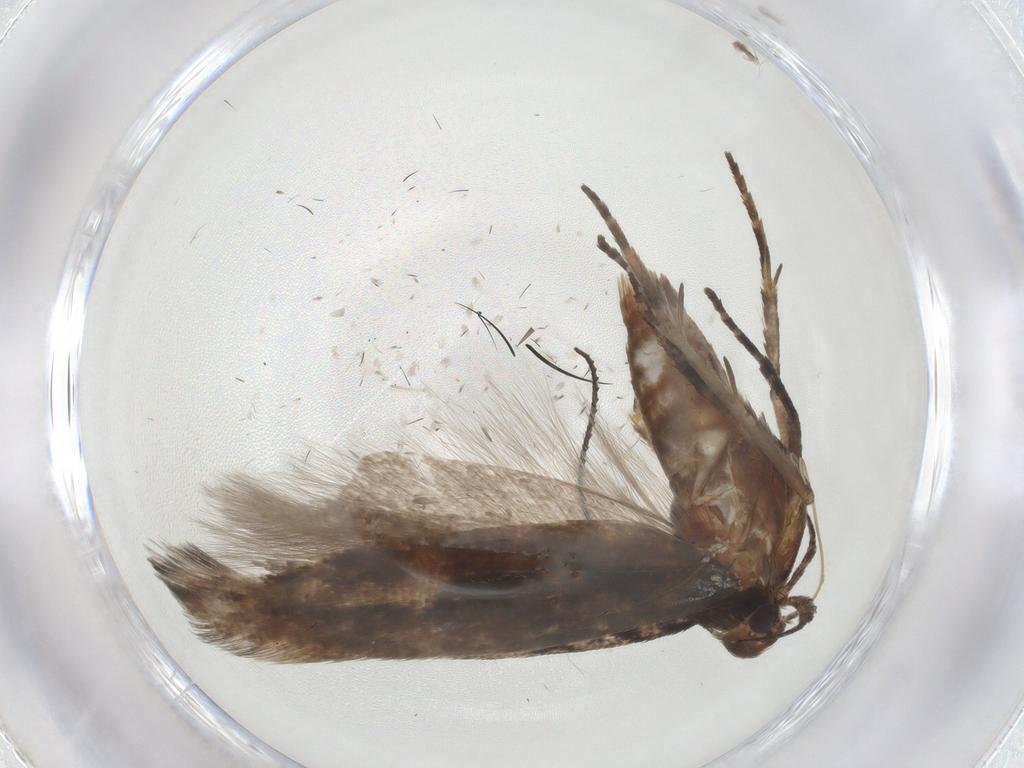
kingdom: Animalia
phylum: Arthropoda
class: Insecta
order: Lepidoptera
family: Gelechiidae
